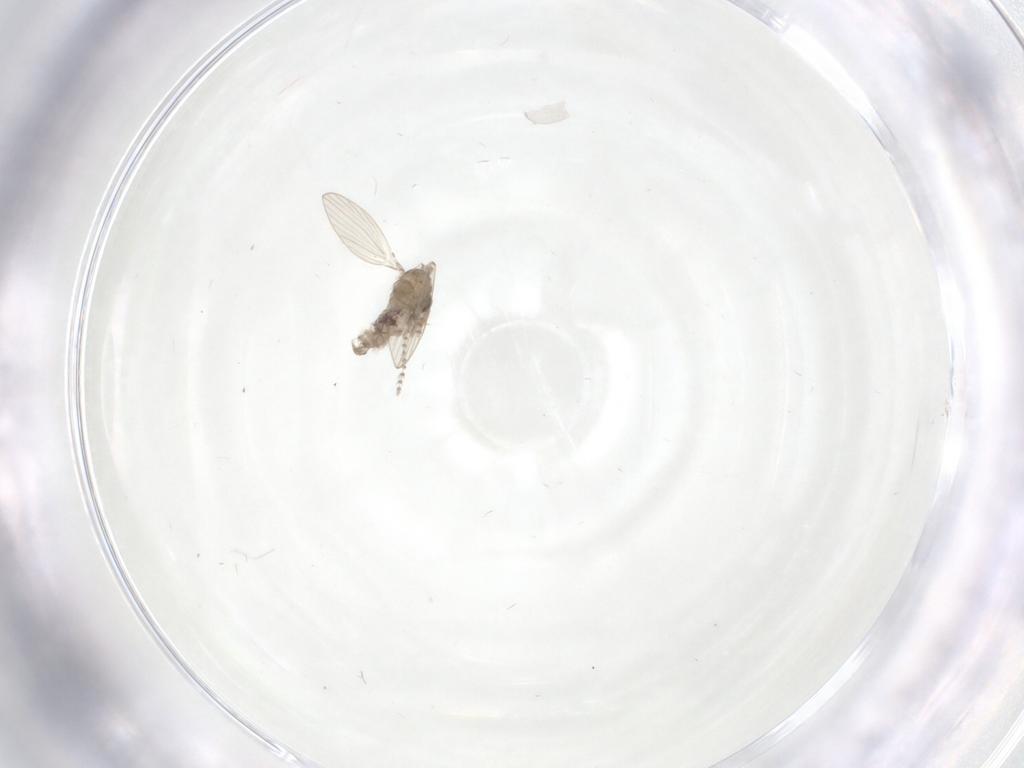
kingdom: Animalia
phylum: Arthropoda
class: Insecta
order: Diptera
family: Psychodidae
